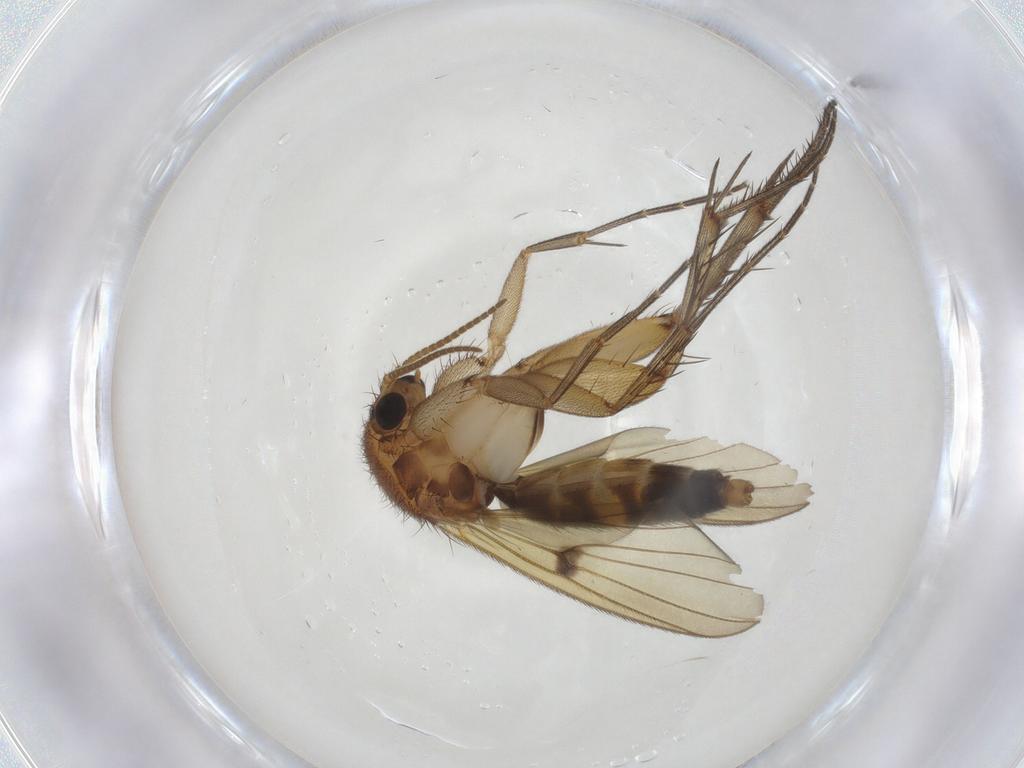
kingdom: Animalia
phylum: Arthropoda
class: Insecta
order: Diptera
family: Mycetophilidae
